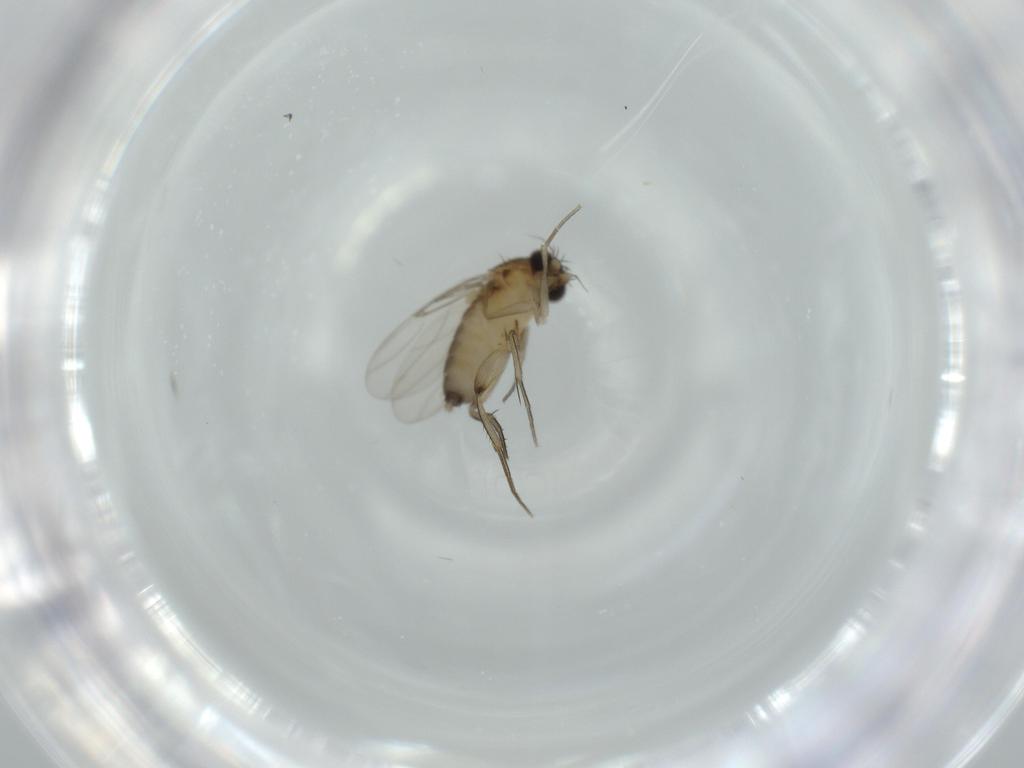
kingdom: Animalia
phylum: Arthropoda
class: Insecta
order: Diptera
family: Phoridae
